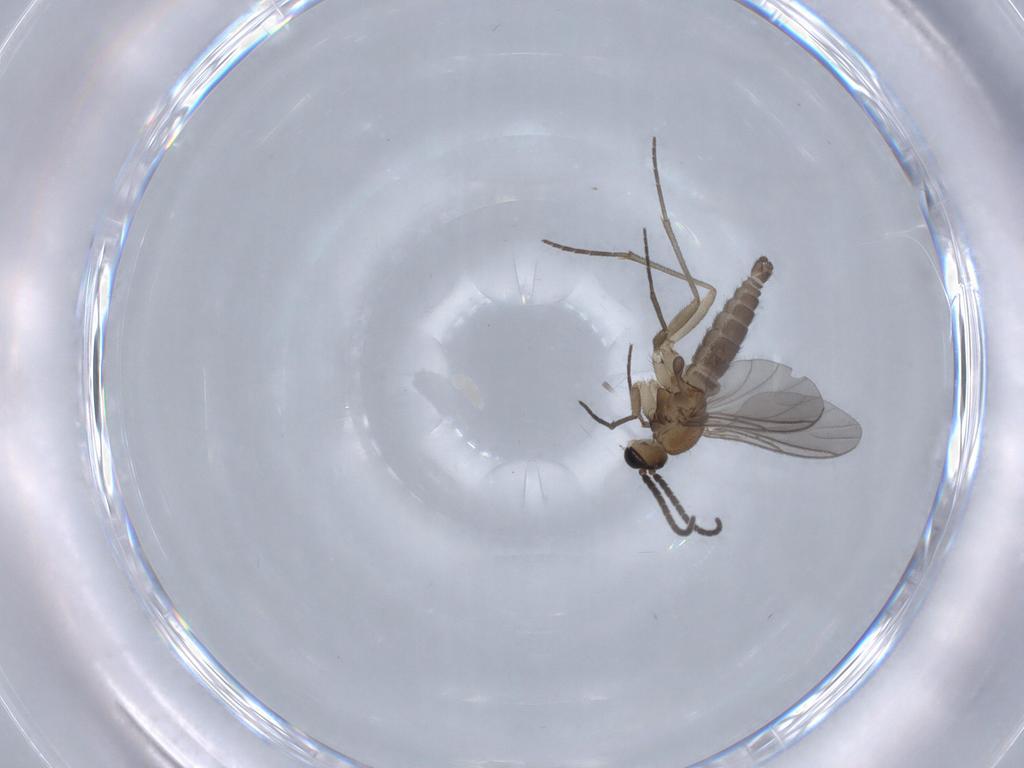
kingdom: Animalia
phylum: Arthropoda
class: Insecta
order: Diptera
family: Sciaridae
